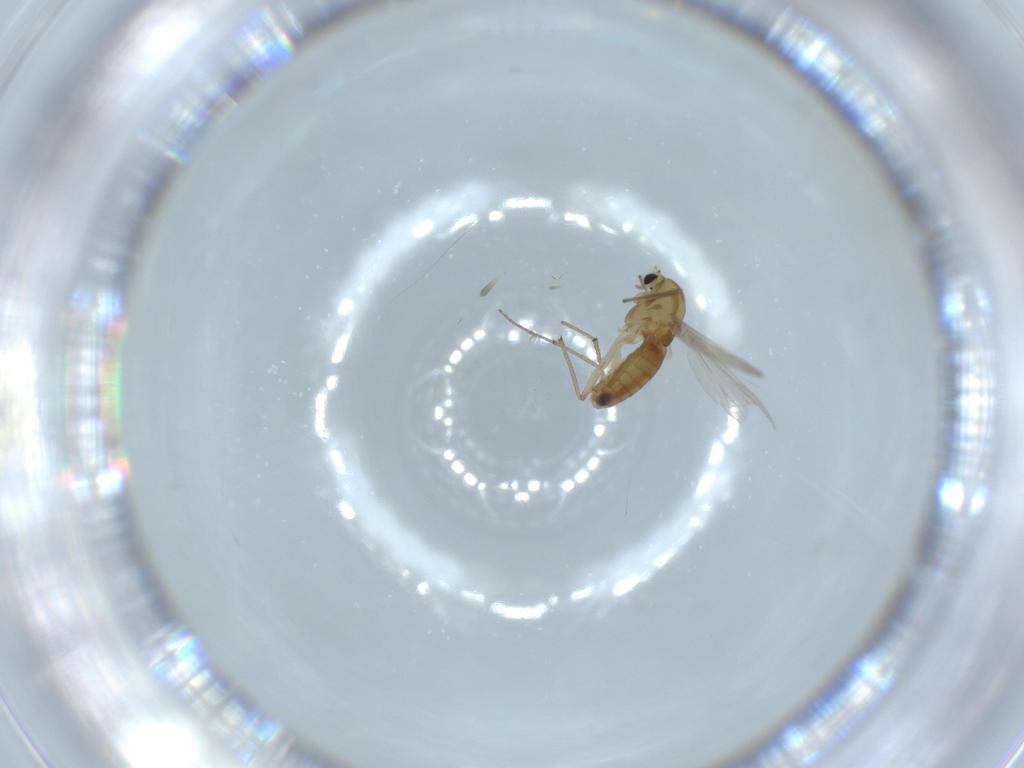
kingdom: Animalia
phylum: Arthropoda
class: Insecta
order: Diptera
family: Chironomidae
